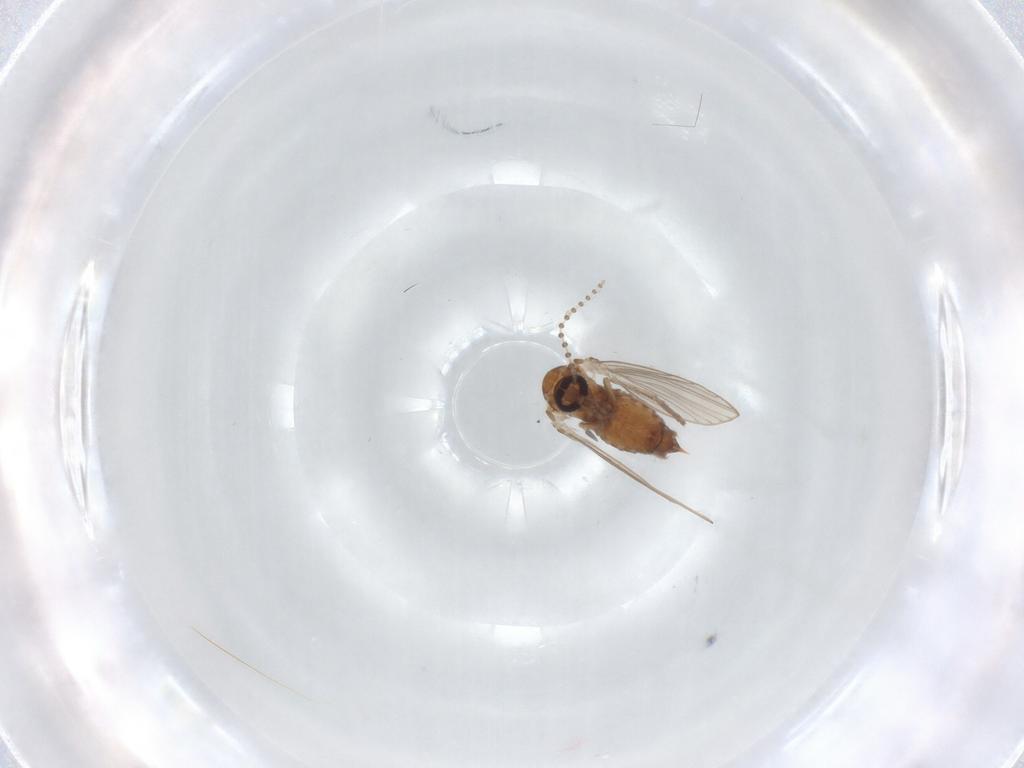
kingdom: Animalia
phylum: Arthropoda
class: Insecta
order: Diptera
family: Psychodidae
